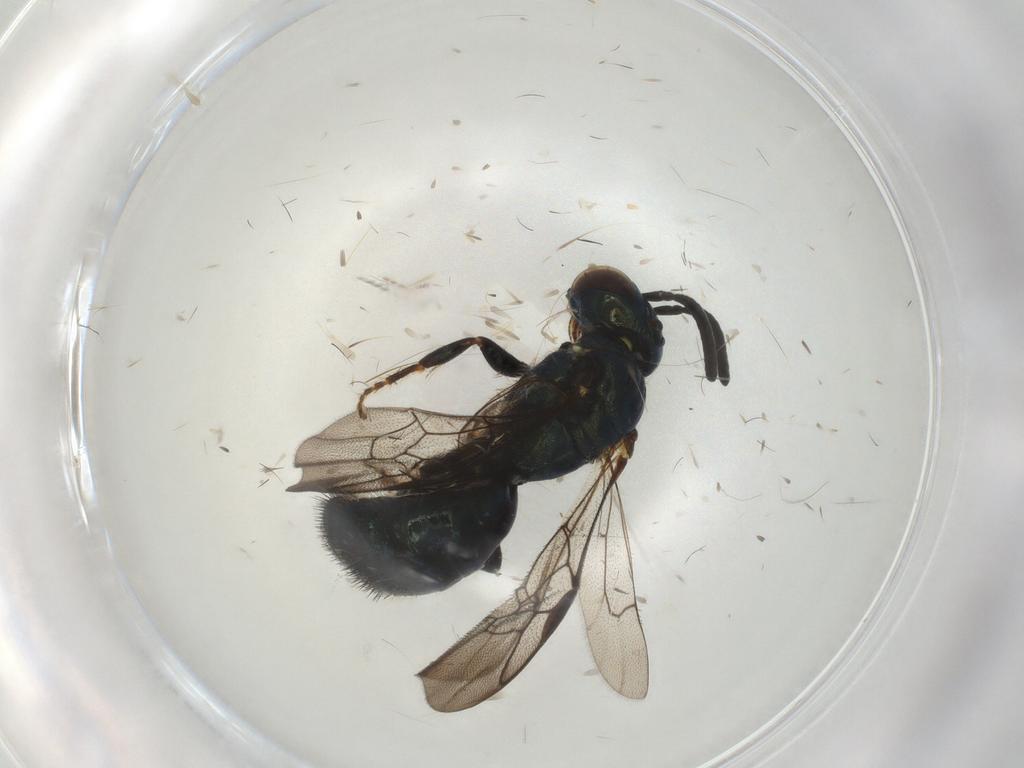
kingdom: Animalia
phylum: Arthropoda
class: Insecta
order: Hymenoptera
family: Apidae
